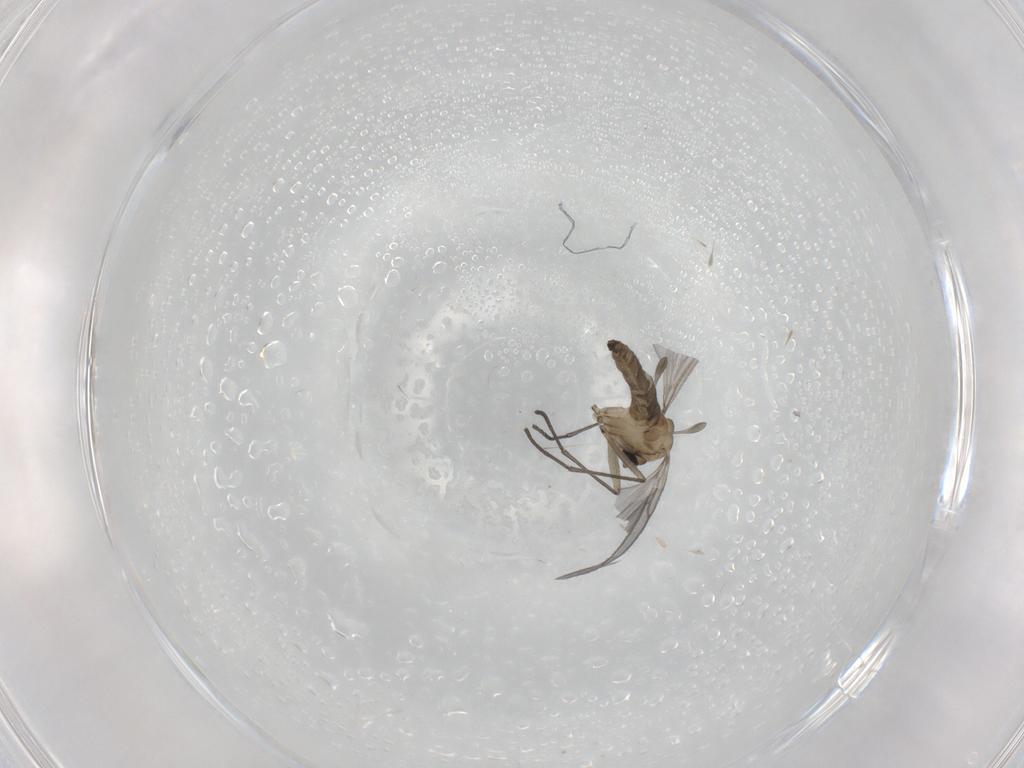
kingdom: Animalia
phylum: Arthropoda
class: Insecta
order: Diptera
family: Sciaridae
